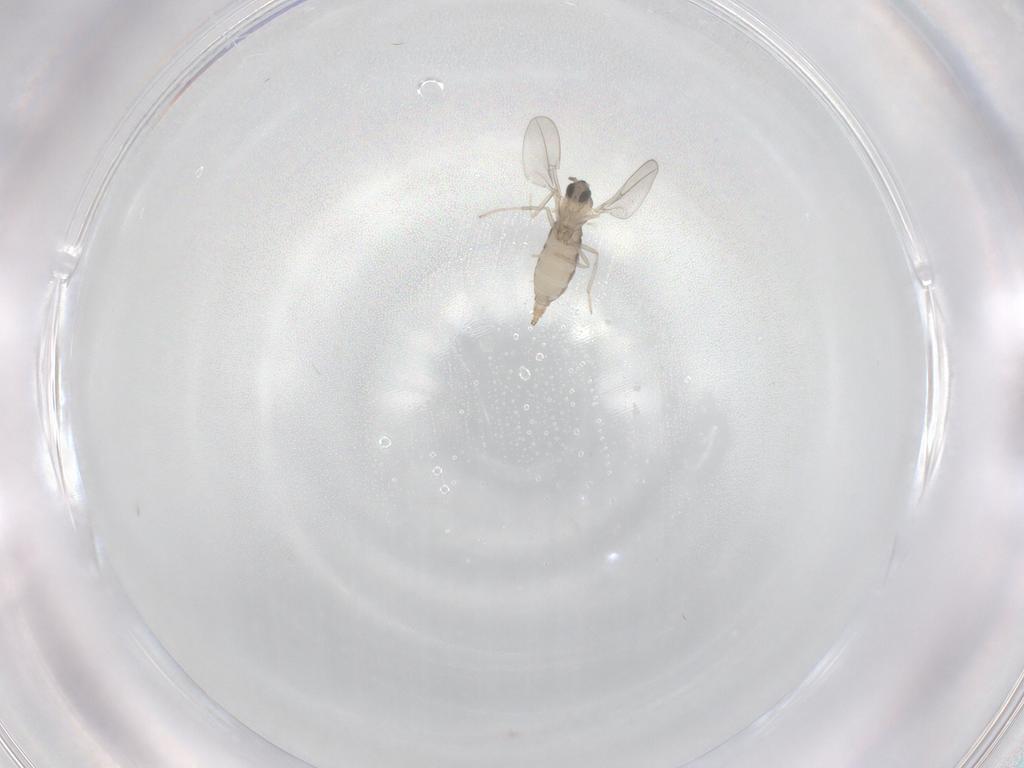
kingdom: Animalia
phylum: Arthropoda
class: Insecta
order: Diptera
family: Cecidomyiidae
